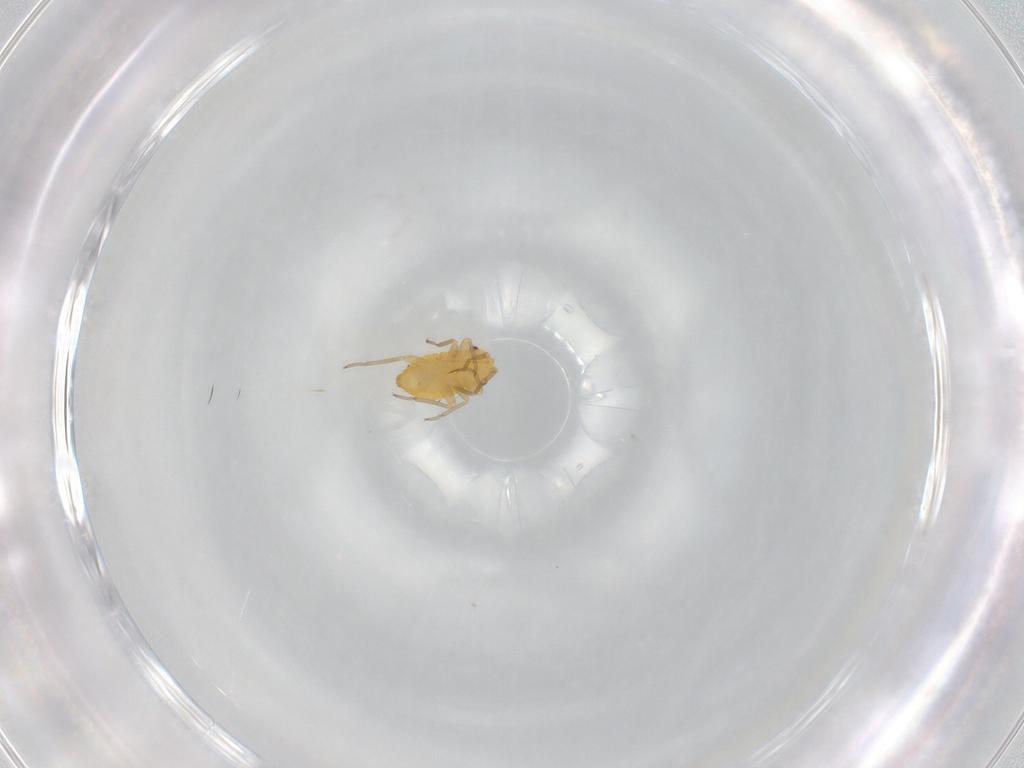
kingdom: Animalia
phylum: Arthropoda
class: Insecta
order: Hemiptera
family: Miridae
